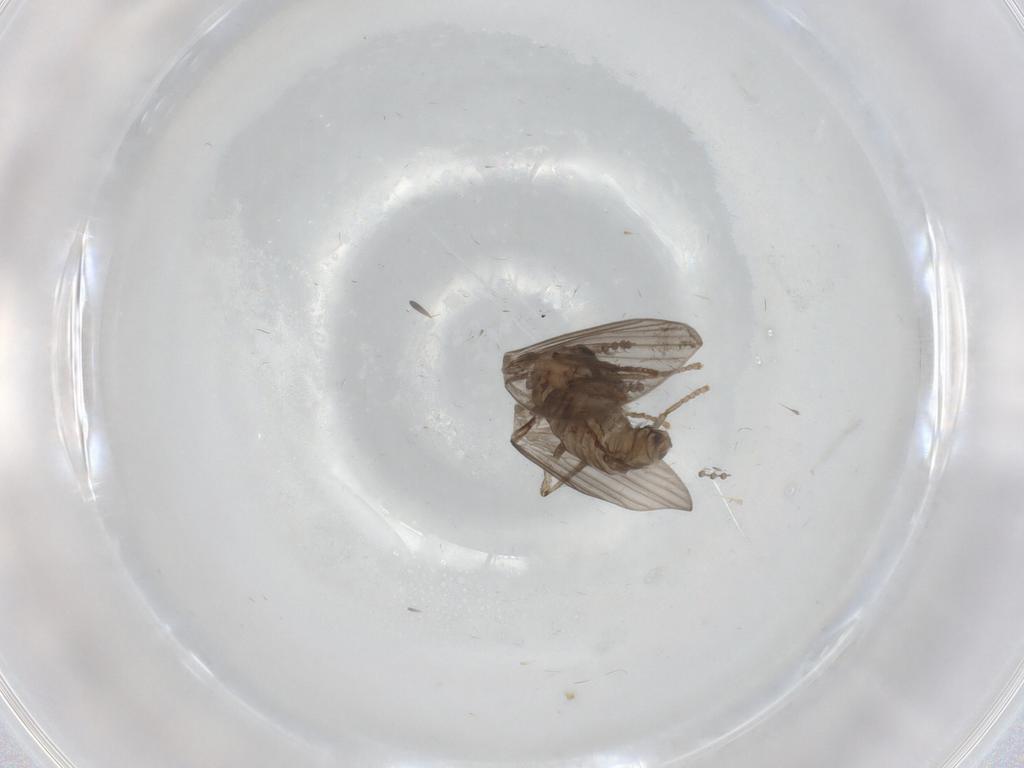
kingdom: Animalia
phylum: Arthropoda
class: Insecta
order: Diptera
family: Psychodidae
